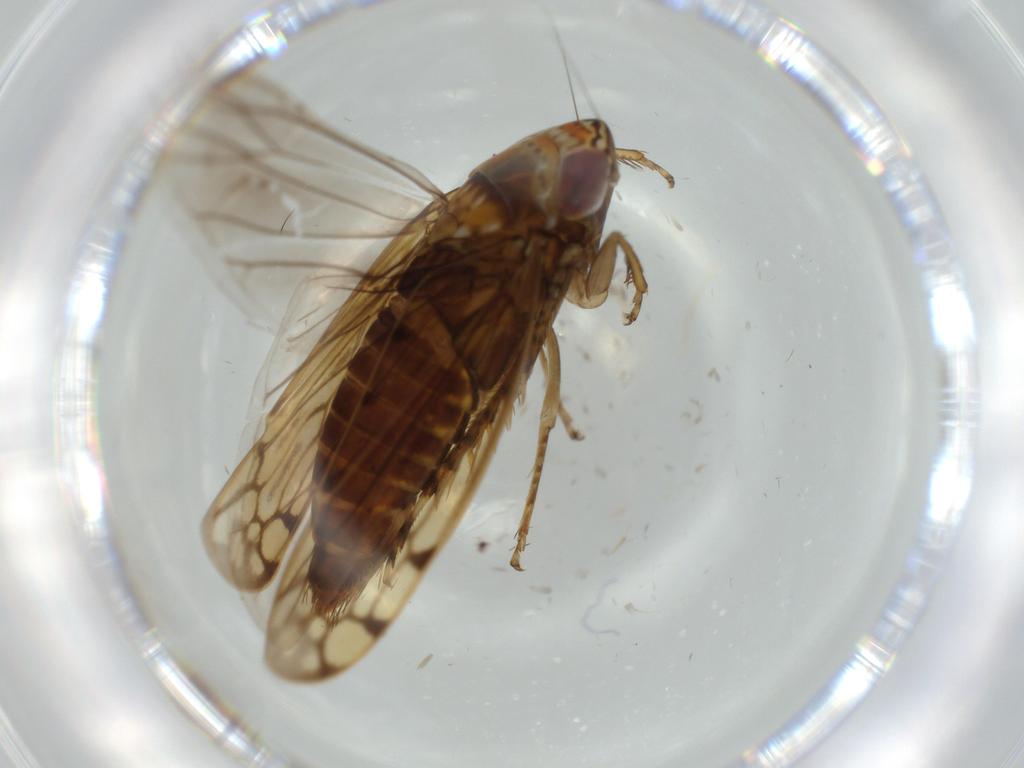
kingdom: Animalia
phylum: Arthropoda
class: Insecta
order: Hemiptera
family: Cicadellidae
